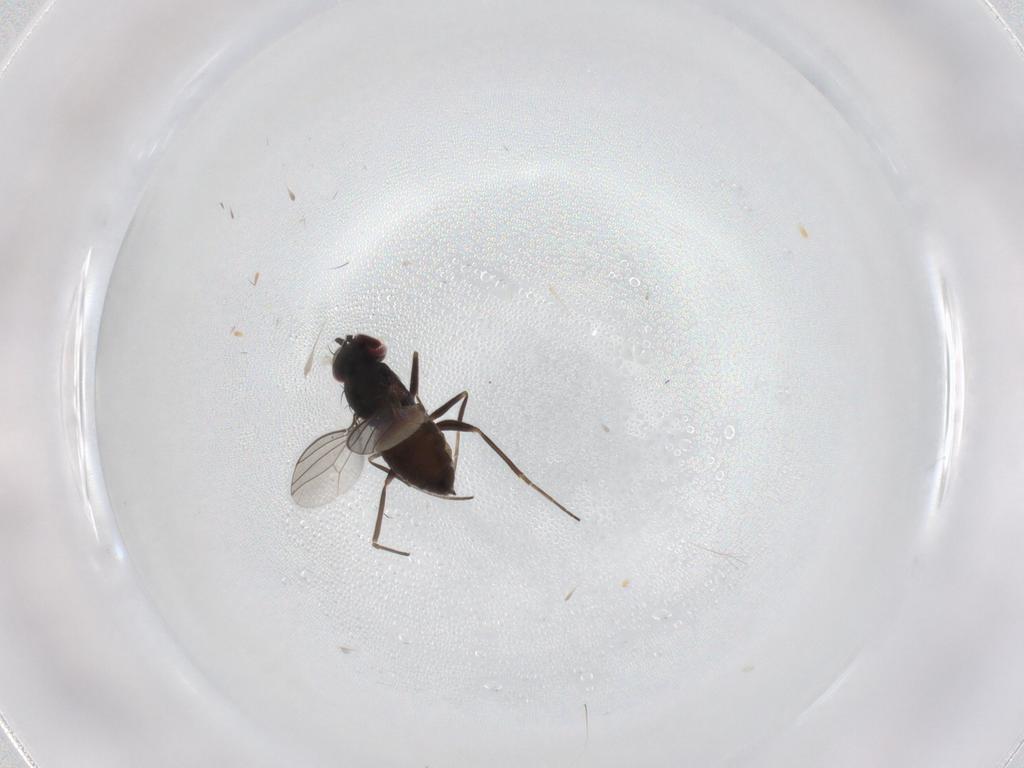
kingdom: Animalia
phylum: Arthropoda
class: Insecta
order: Diptera
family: Dolichopodidae
